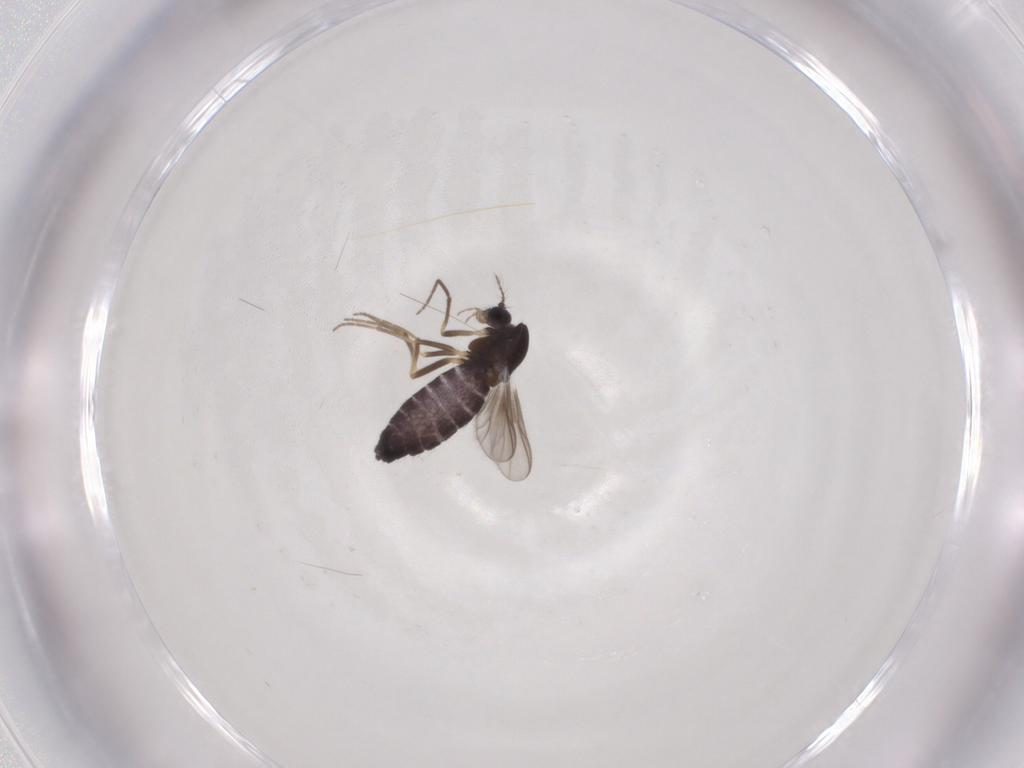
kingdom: Animalia
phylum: Arthropoda
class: Insecta
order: Diptera
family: Chironomidae
